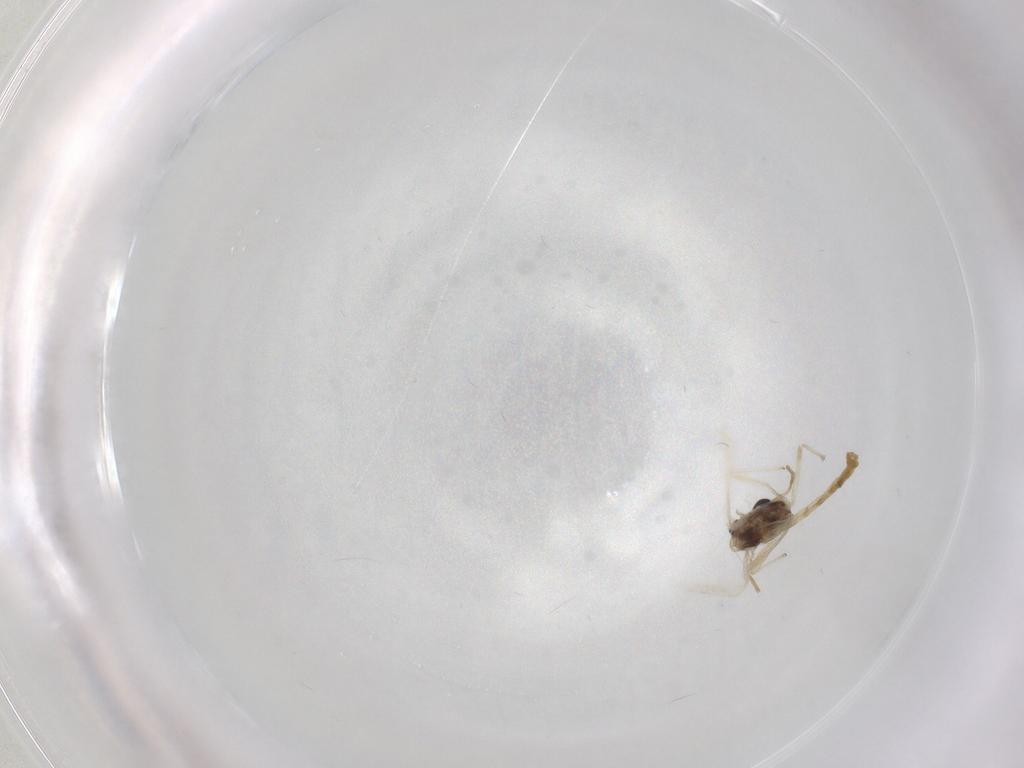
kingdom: Animalia
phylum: Arthropoda
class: Insecta
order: Diptera
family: Chironomidae
